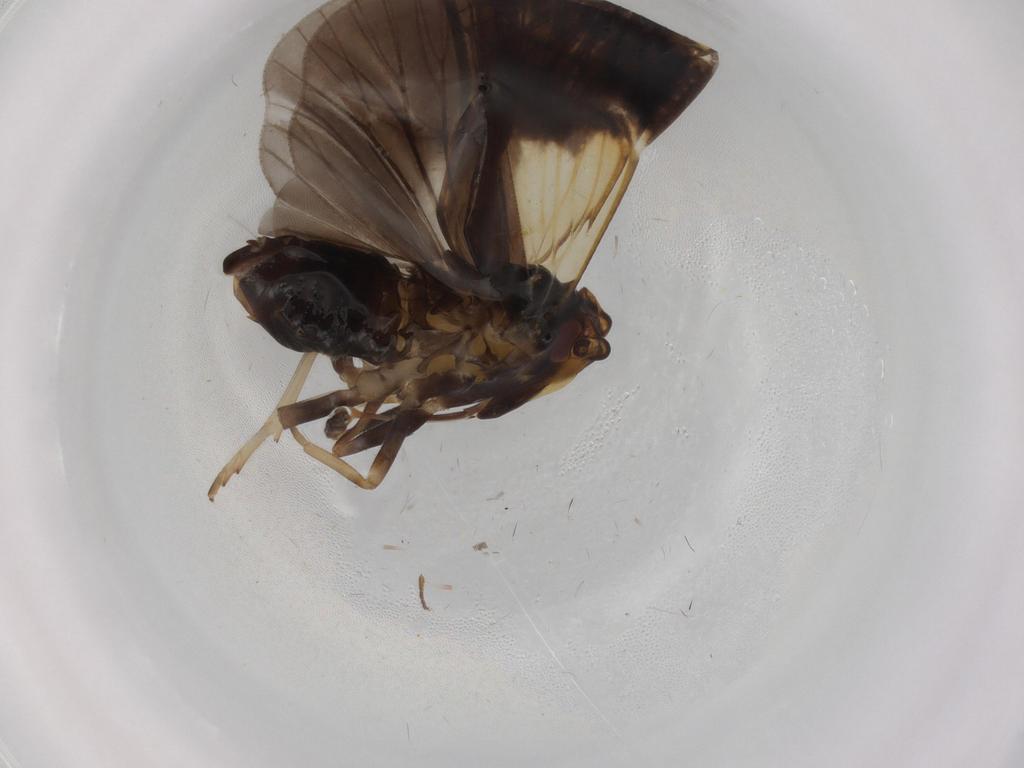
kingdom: Animalia
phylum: Arthropoda
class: Insecta
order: Hemiptera
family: Cixiidae
